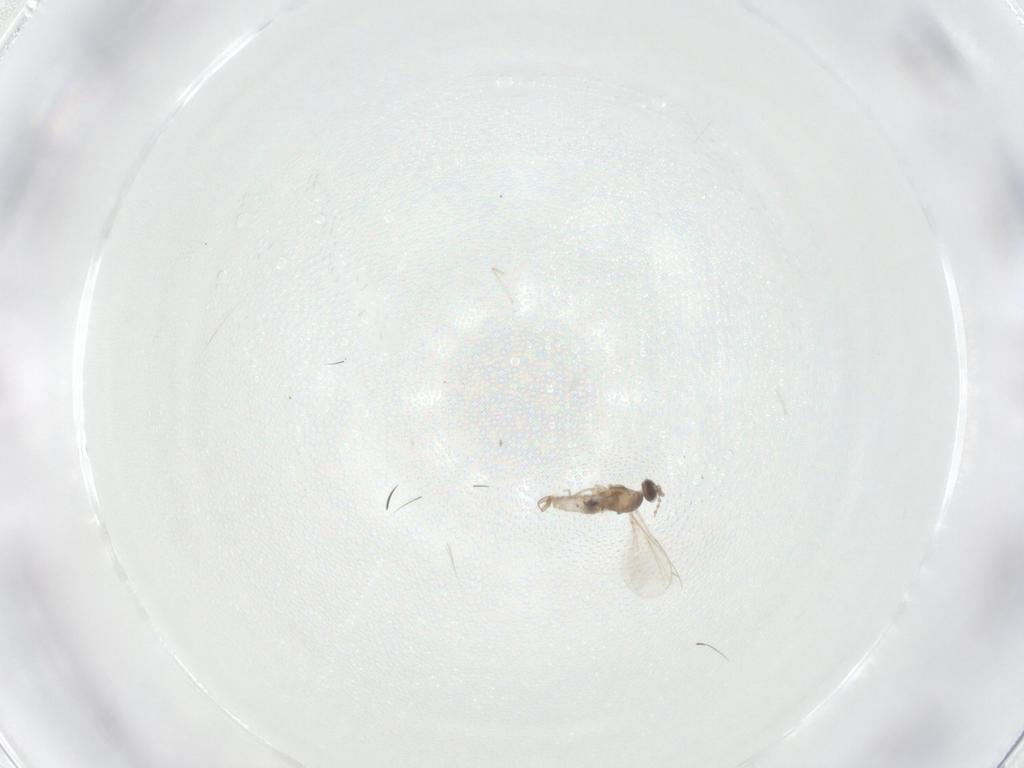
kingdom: Animalia
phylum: Arthropoda
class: Insecta
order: Diptera
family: Cecidomyiidae
